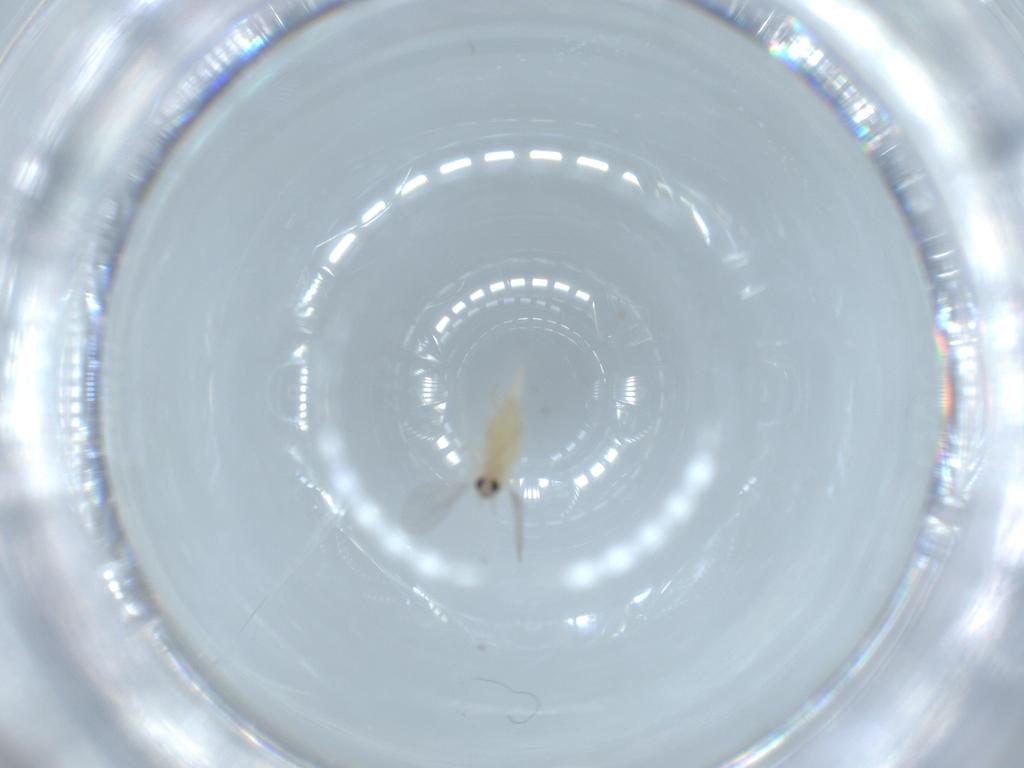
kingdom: Animalia
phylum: Arthropoda
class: Insecta
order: Diptera
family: Cecidomyiidae
